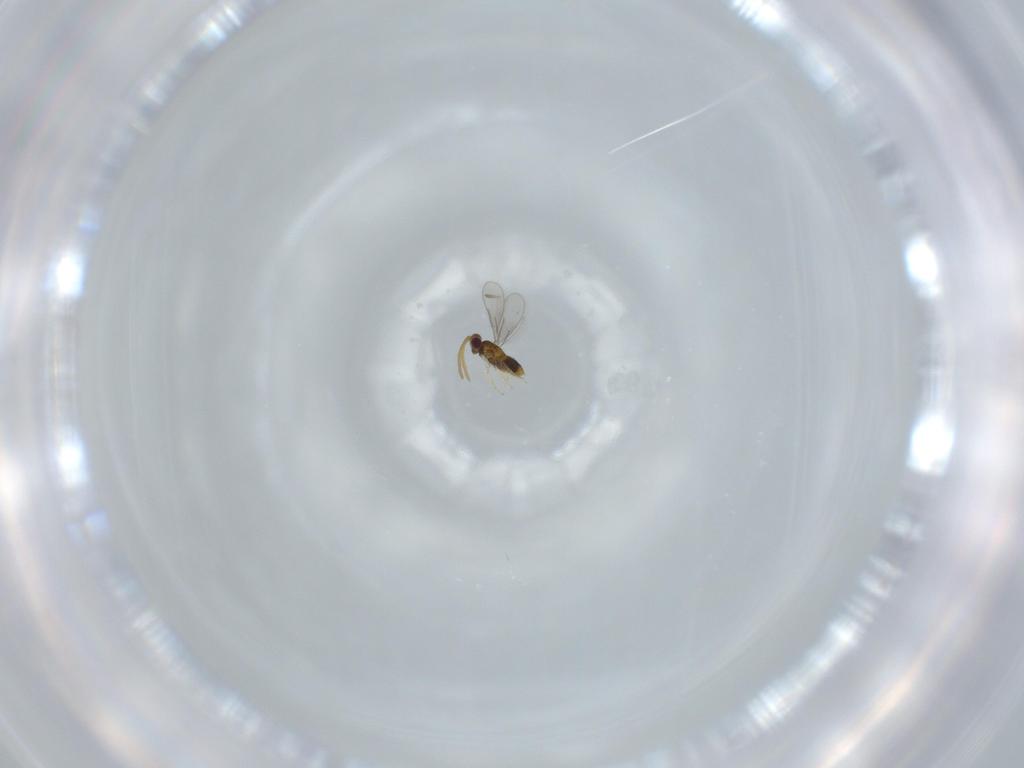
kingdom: Animalia
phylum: Arthropoda
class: Insecta
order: Hymenoptera
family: Aphelinidae
